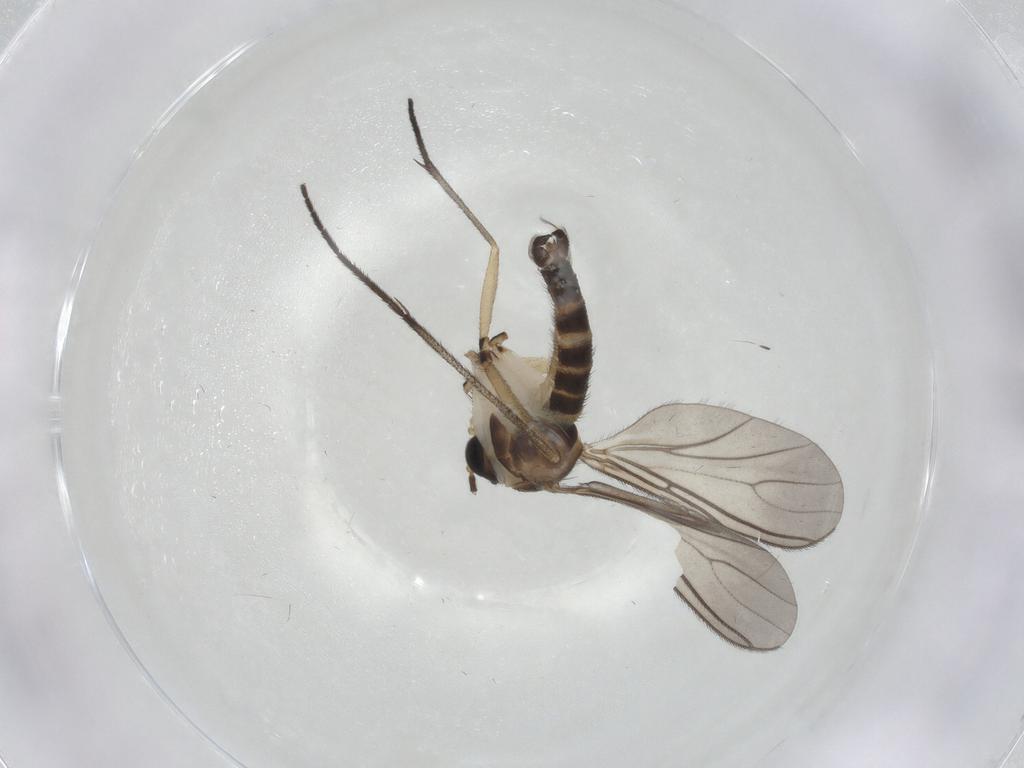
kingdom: Animalia
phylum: Arthropoda
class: Insecta
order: Diptera
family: Sciaridae
